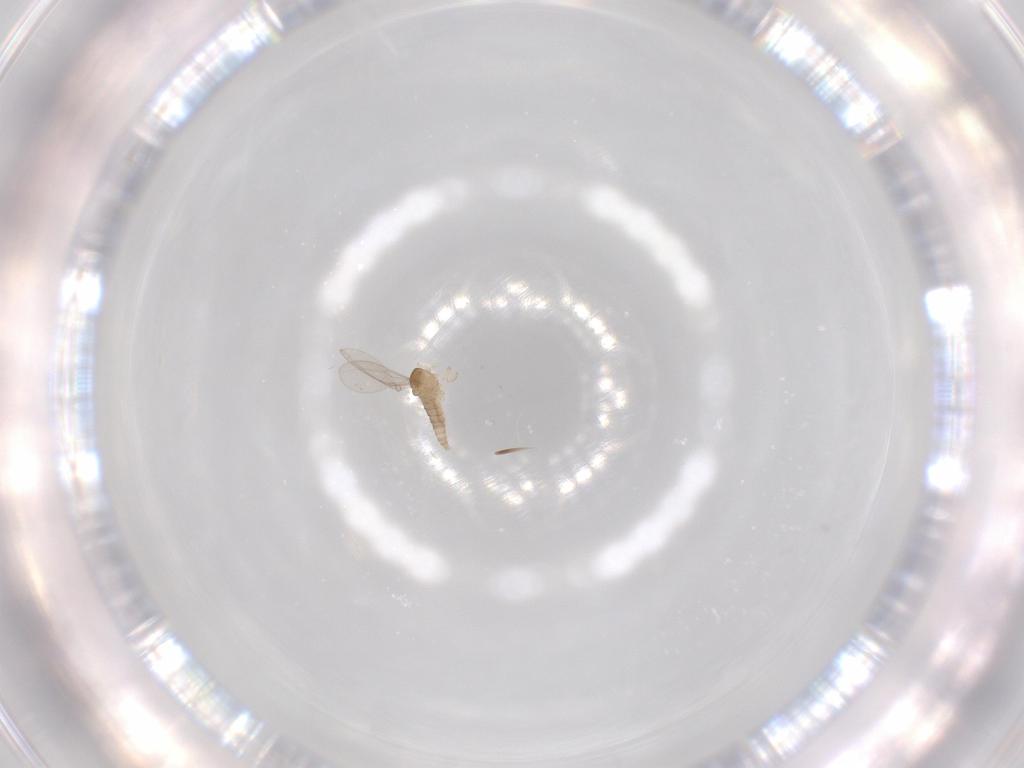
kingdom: Animalia
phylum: Arthropoda
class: Insecta
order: Diptera
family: Cecidomyiidae
